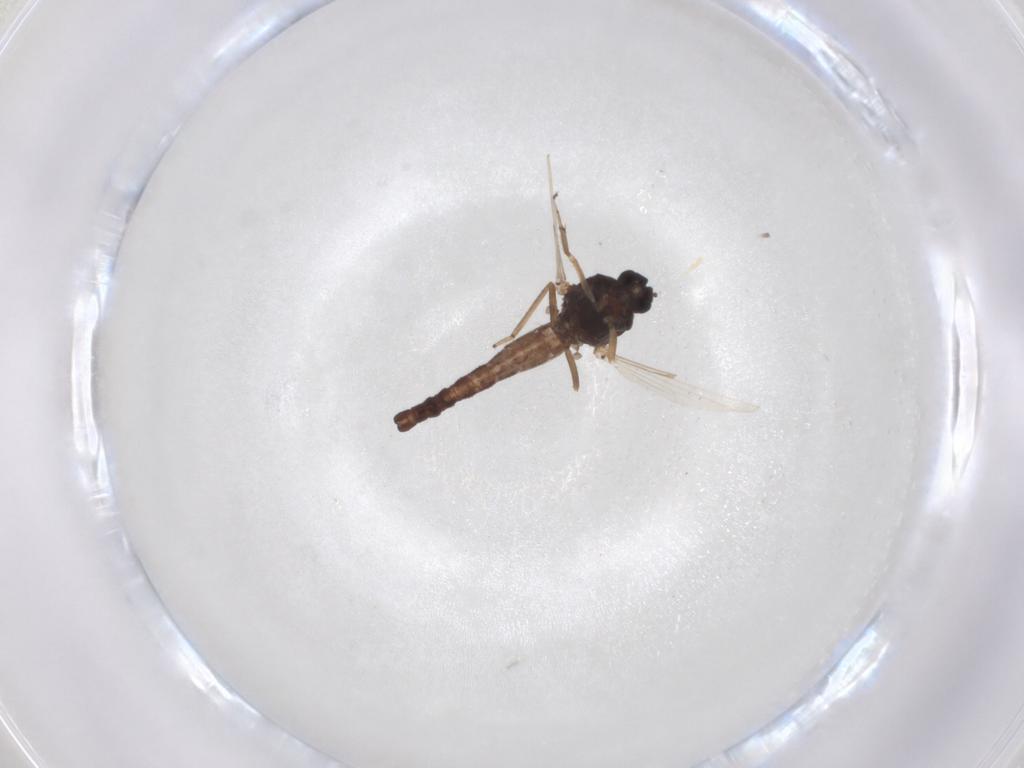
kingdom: Animalia
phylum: Arthropoda
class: Insecta
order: Diptera
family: Ceratopogonidae
